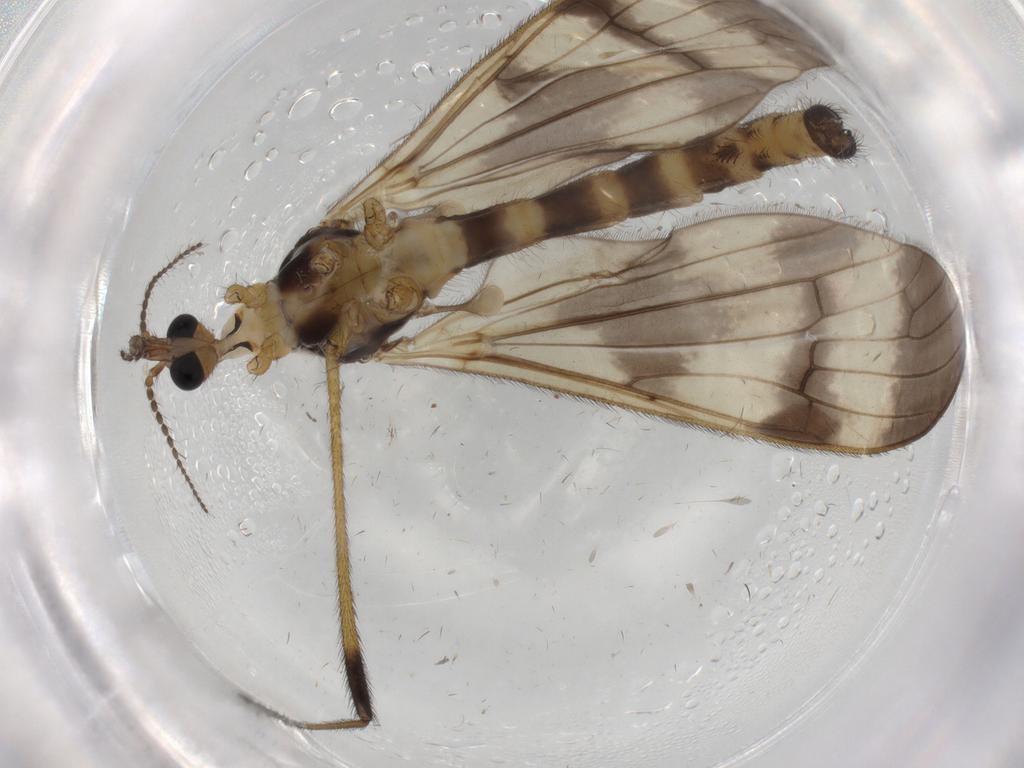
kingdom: Animalia
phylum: Arthropoda
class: Insecta
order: Diptera
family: Limoniidae
